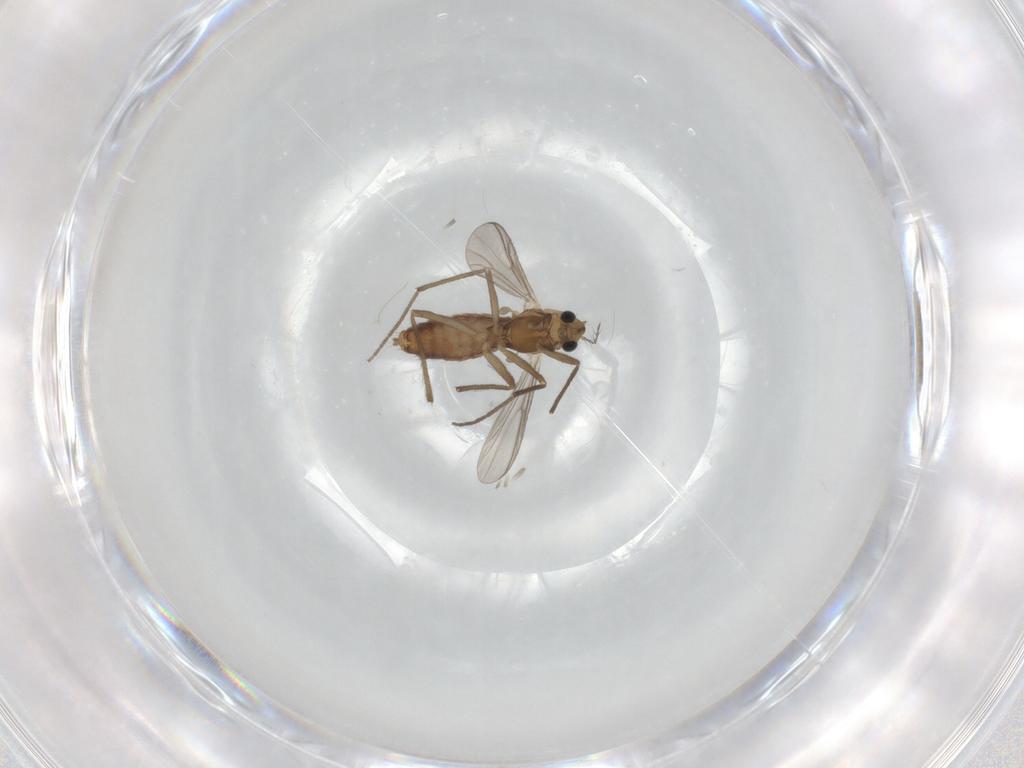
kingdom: Animalia
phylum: Arthropoda
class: Insecta
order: Diptera
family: Chironomidae
